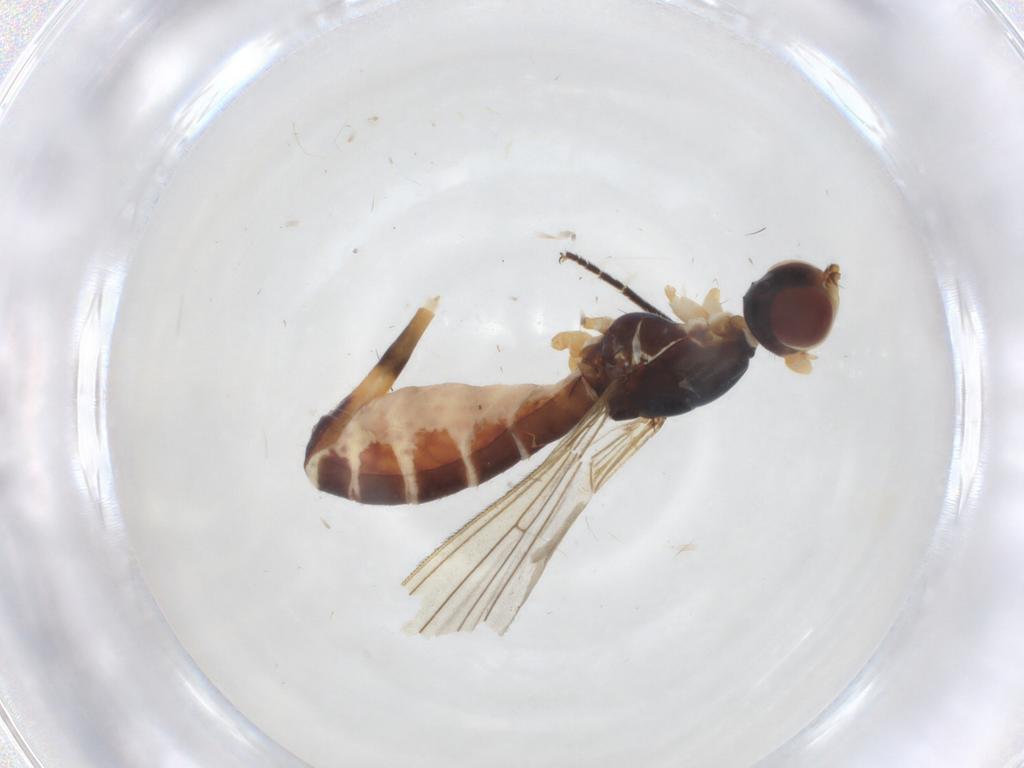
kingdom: Animalia
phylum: Arthropoda
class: Insecta
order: Diptera
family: Micropezidae
